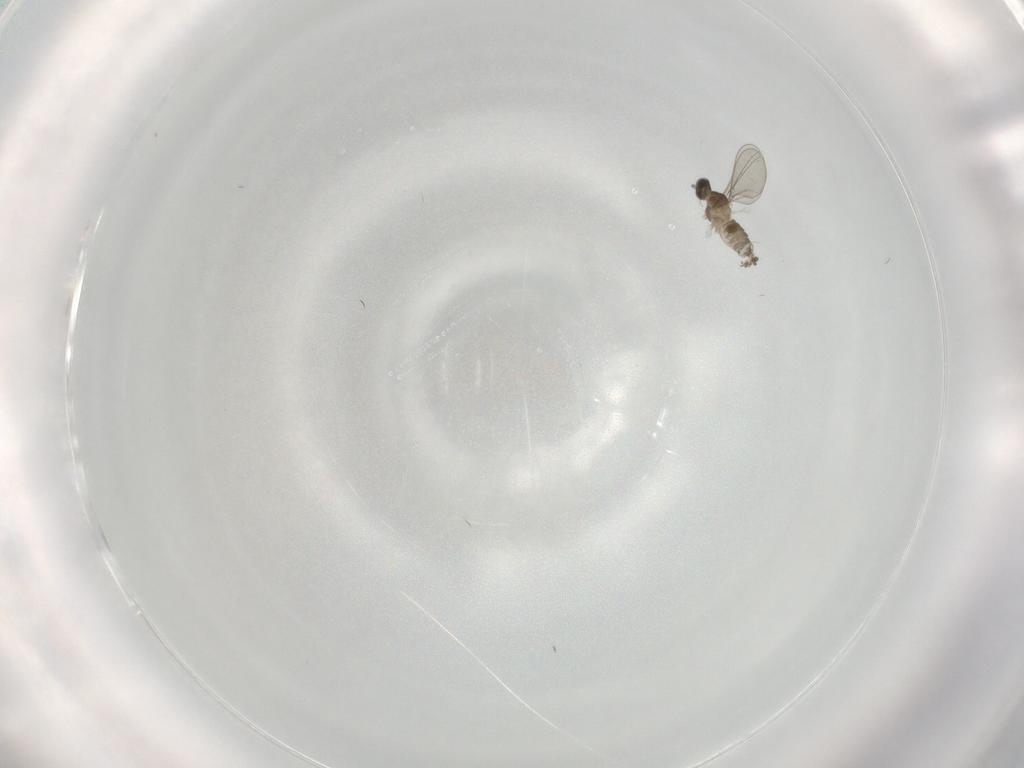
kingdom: Animalia
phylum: Arthropoda
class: Insecta
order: Diptera
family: Cecidomyiidae
